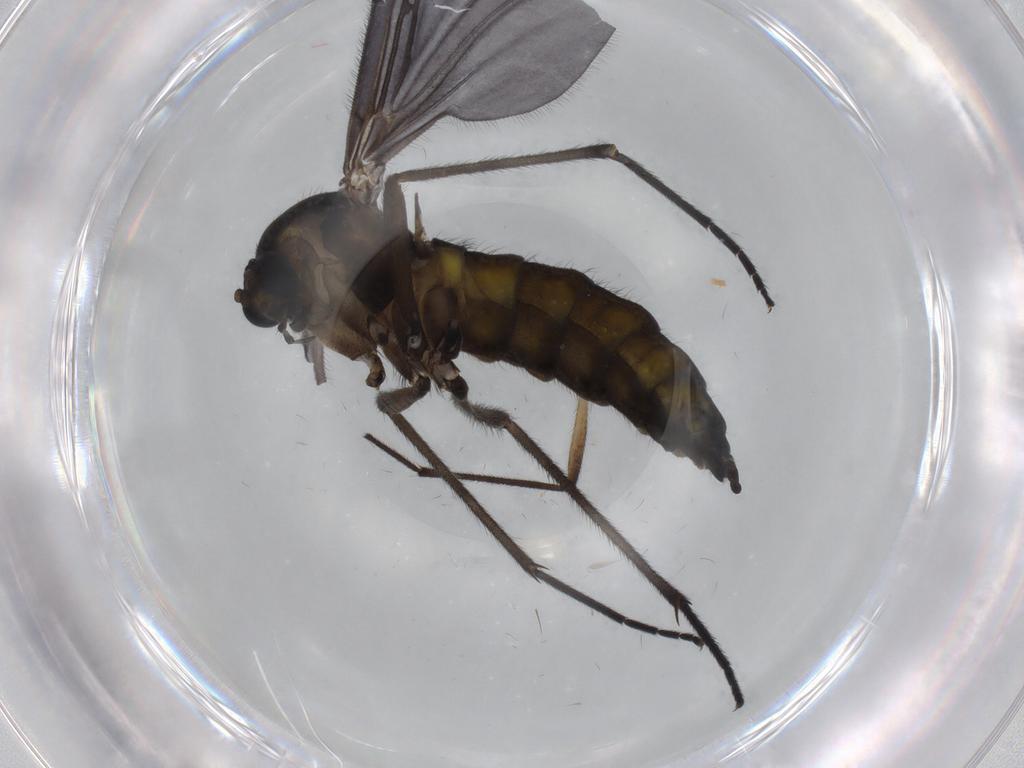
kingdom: Animalia
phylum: Arthropoda
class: Insecta
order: Diptera
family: Sciaridae
